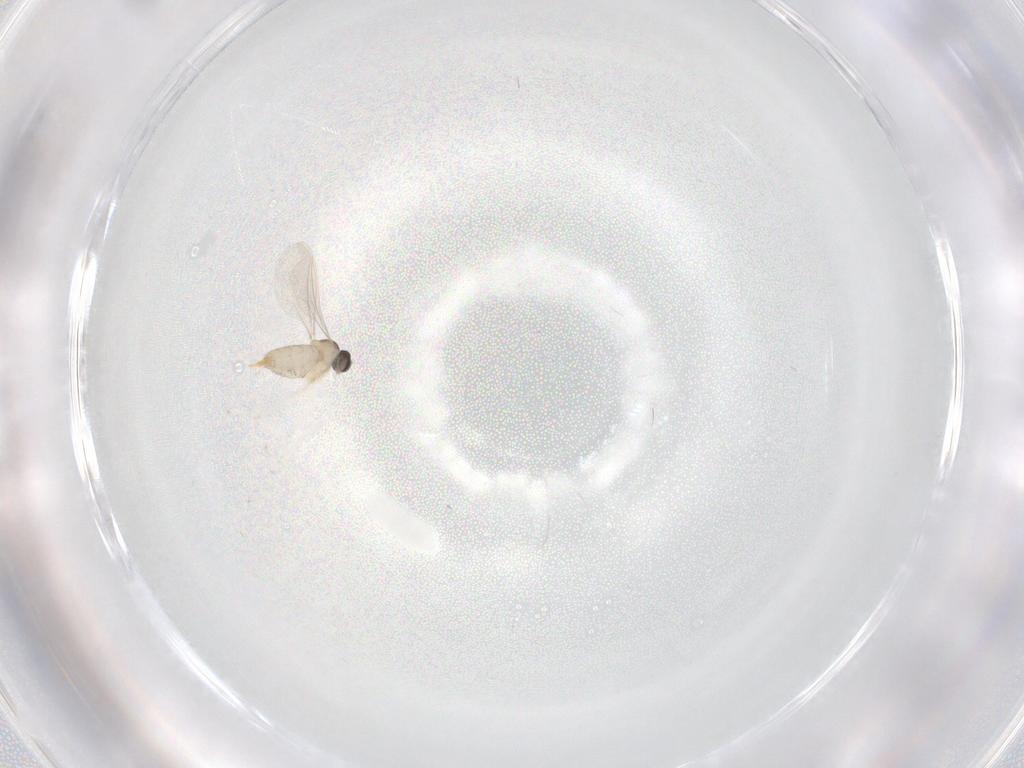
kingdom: Animalia
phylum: Arthropoda
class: Insecta
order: Diptera
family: Cecidomyiidae
